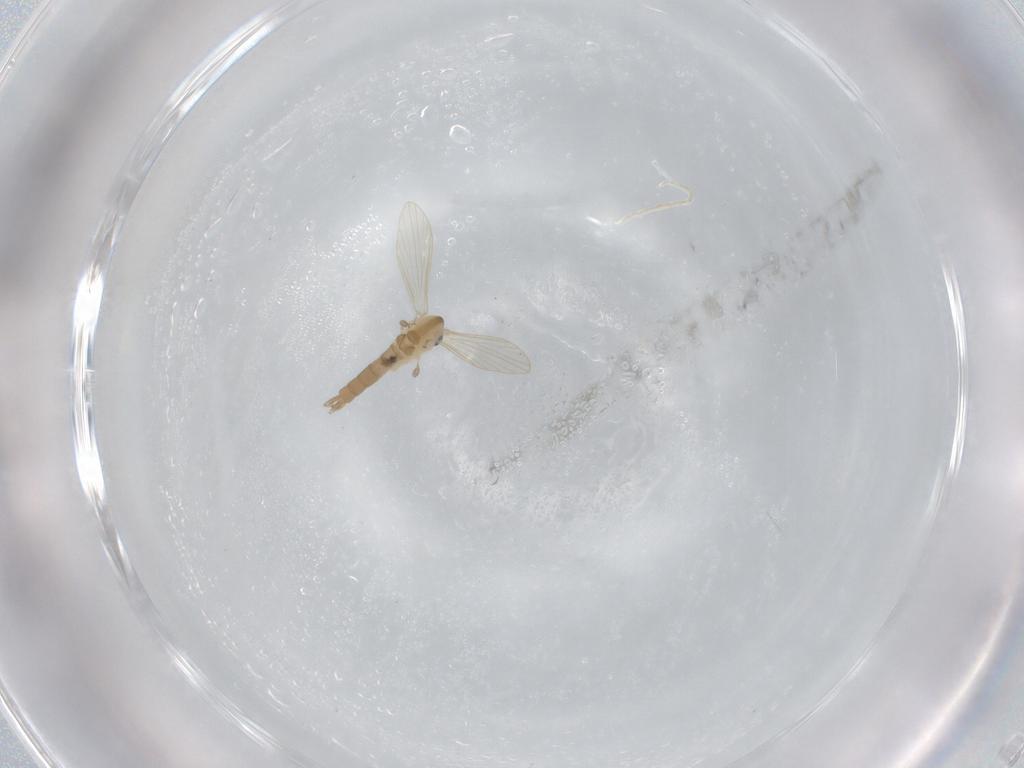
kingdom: Animalia
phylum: Arthropoda
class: Insecta
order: Diptera
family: Psychodidae
